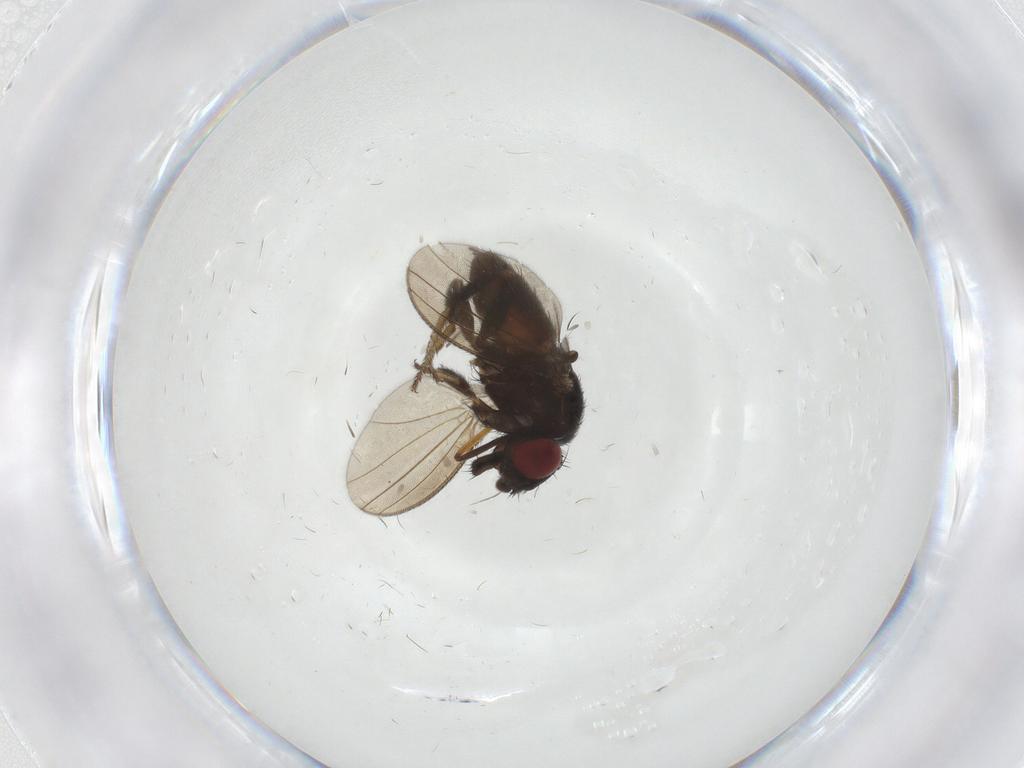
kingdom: Animalia
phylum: Arthropoda
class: Insecta
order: Diptera
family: Milichiidae
